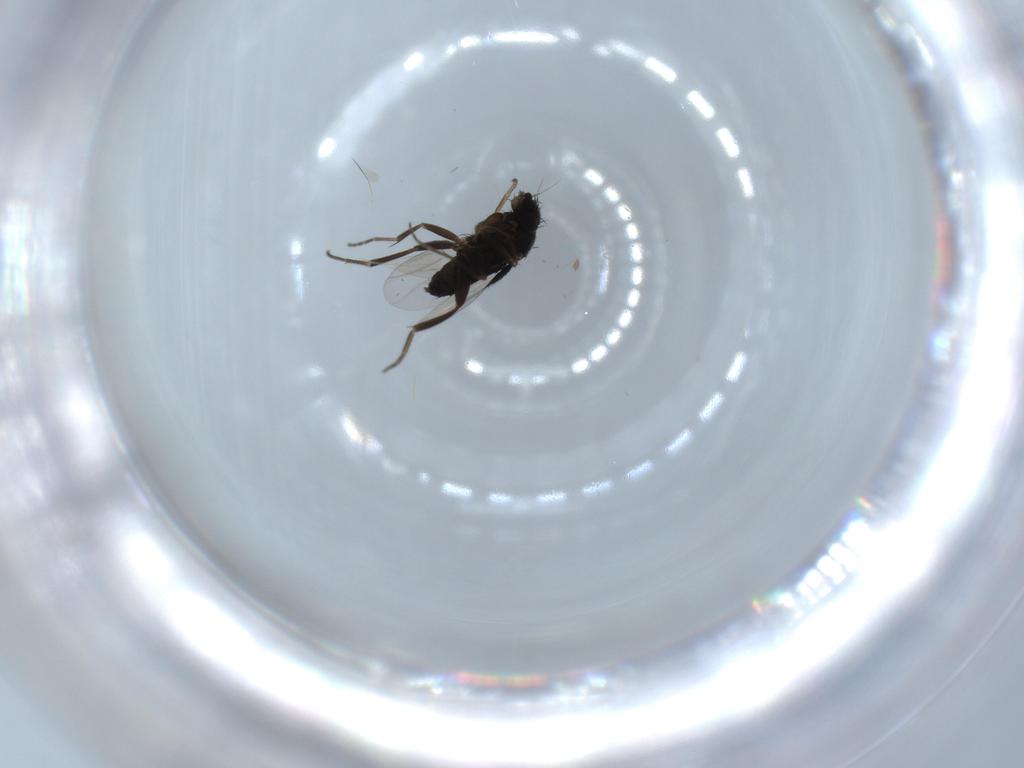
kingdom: Animalia
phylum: Arthropoda
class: Insecta
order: Diptera
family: Phoridae
